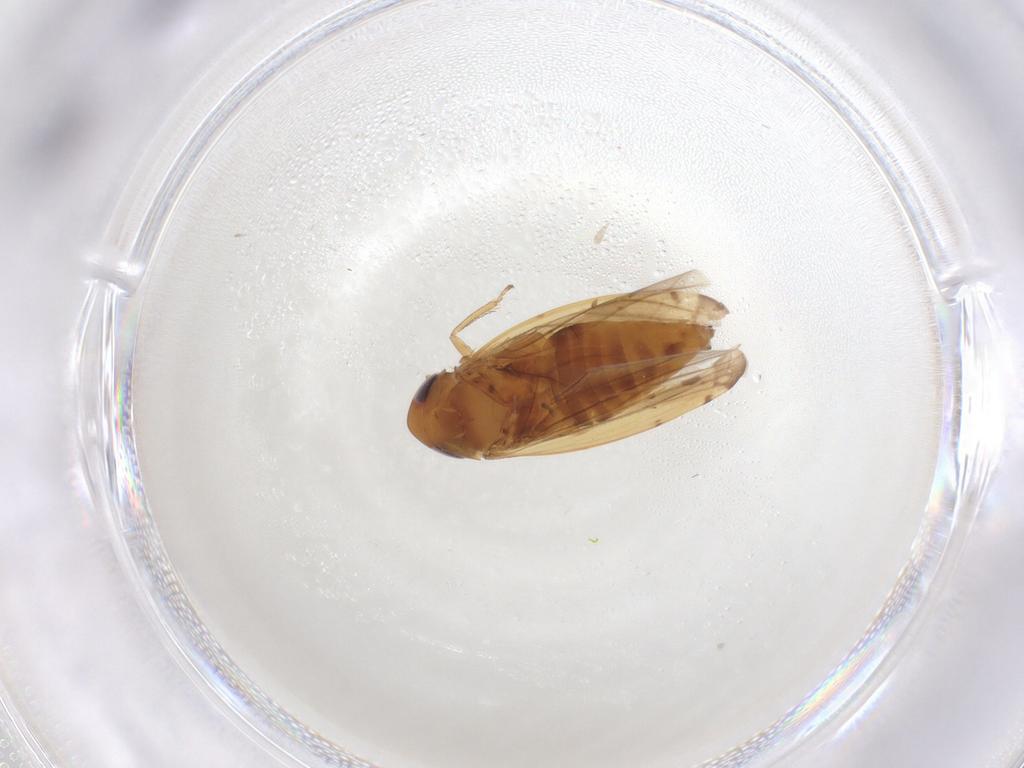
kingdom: Animalia
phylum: Arthropoda
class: Insecta
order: Hemiptera
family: Cicadellidae
